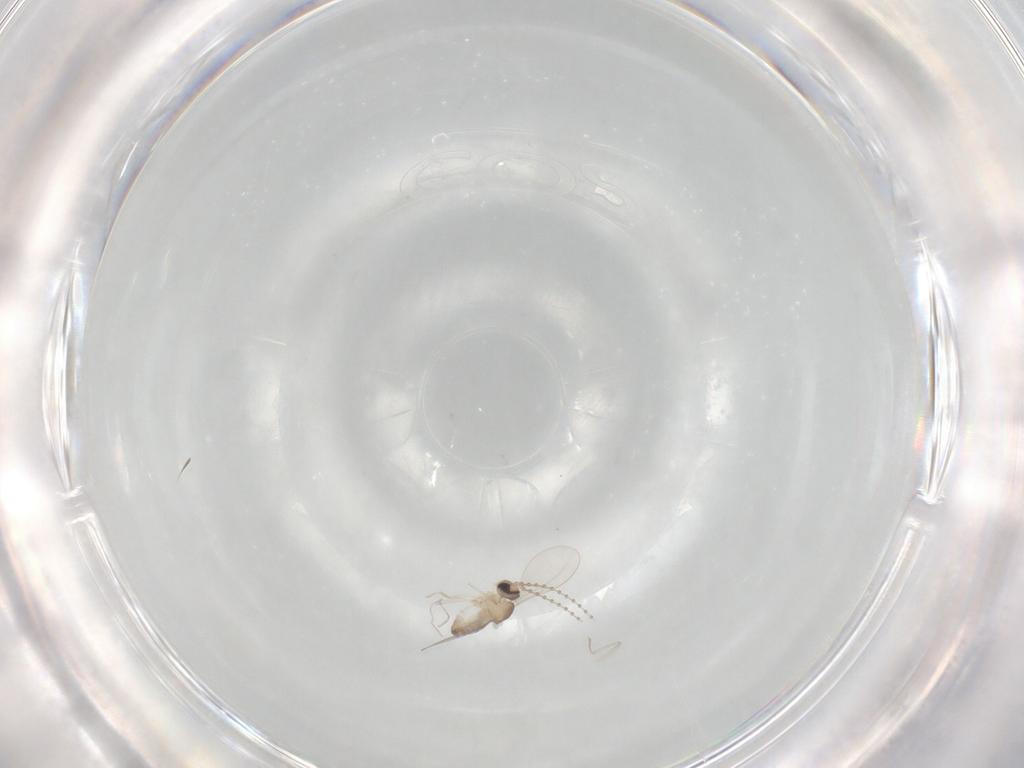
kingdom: Animalia
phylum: Arthropoda
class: Insecta
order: Diptera
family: Cecidomyiidae
